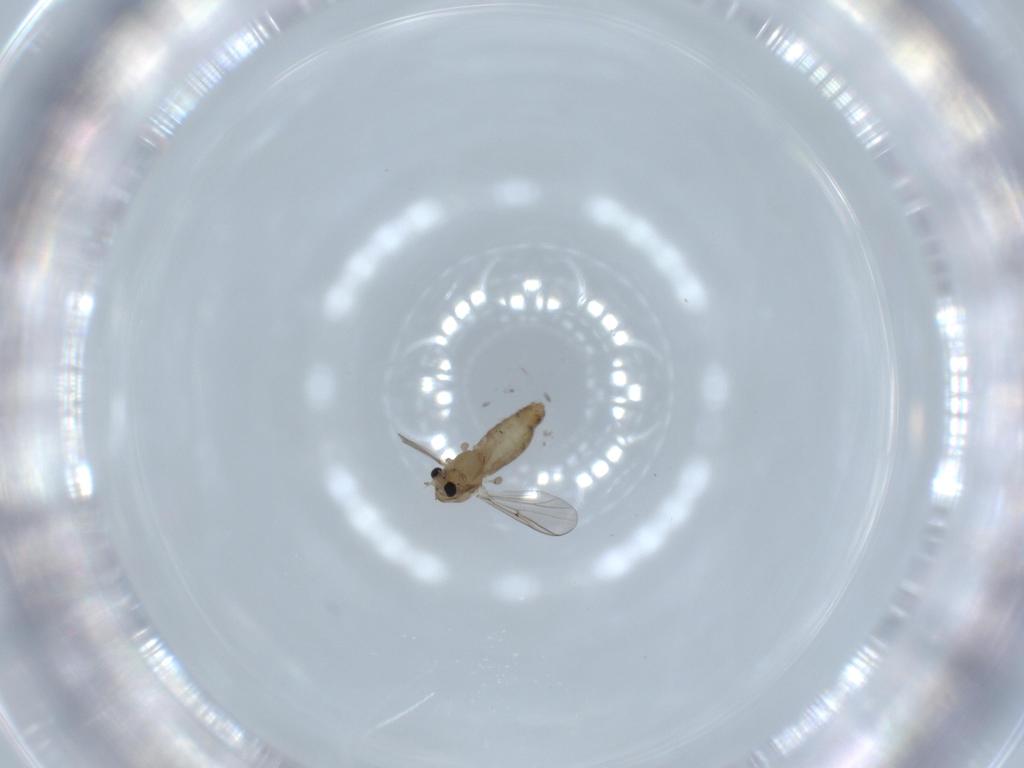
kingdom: Animalia
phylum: Arthropoda
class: Insecta
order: Diptera
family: Chironomidae
